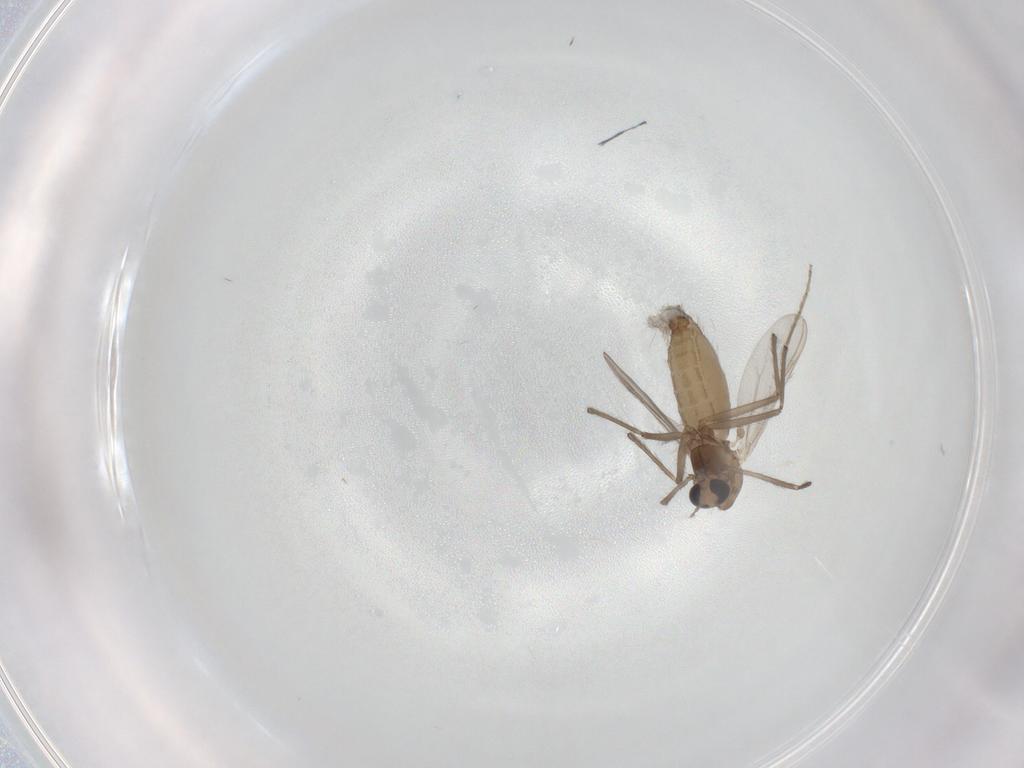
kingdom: Animalia
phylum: Arthropoda
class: Insecta
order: Diptera
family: Chironomidae
